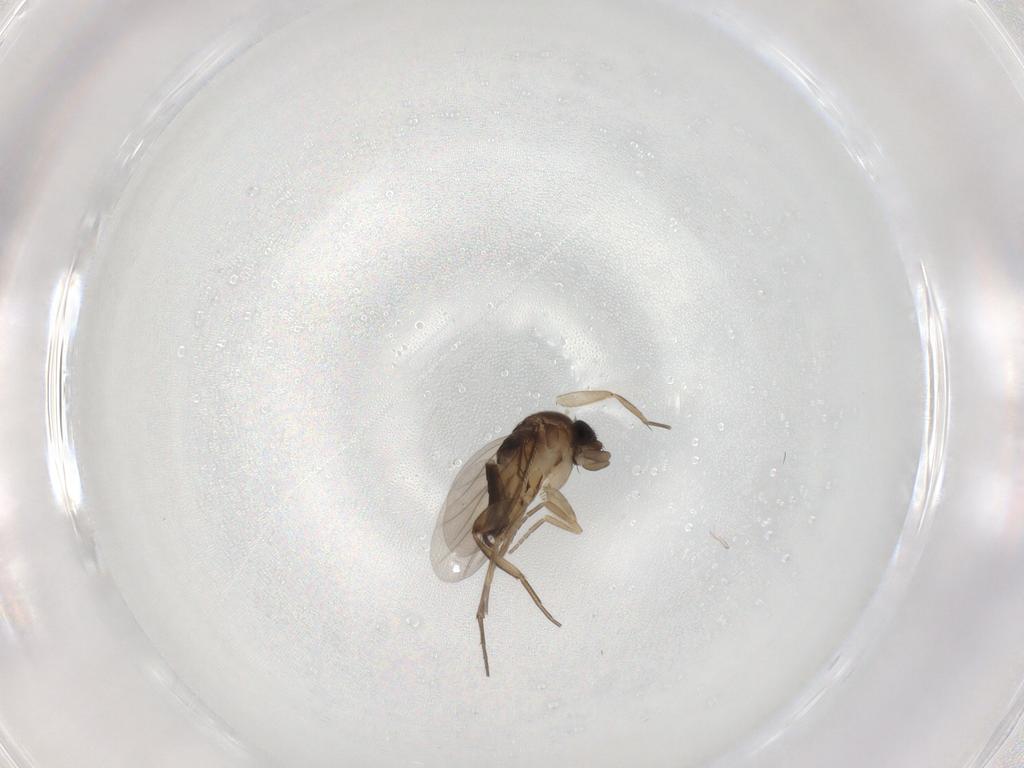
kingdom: Animalia
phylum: Arthropoda
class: Insecta
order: Diptera
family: Phoridae
